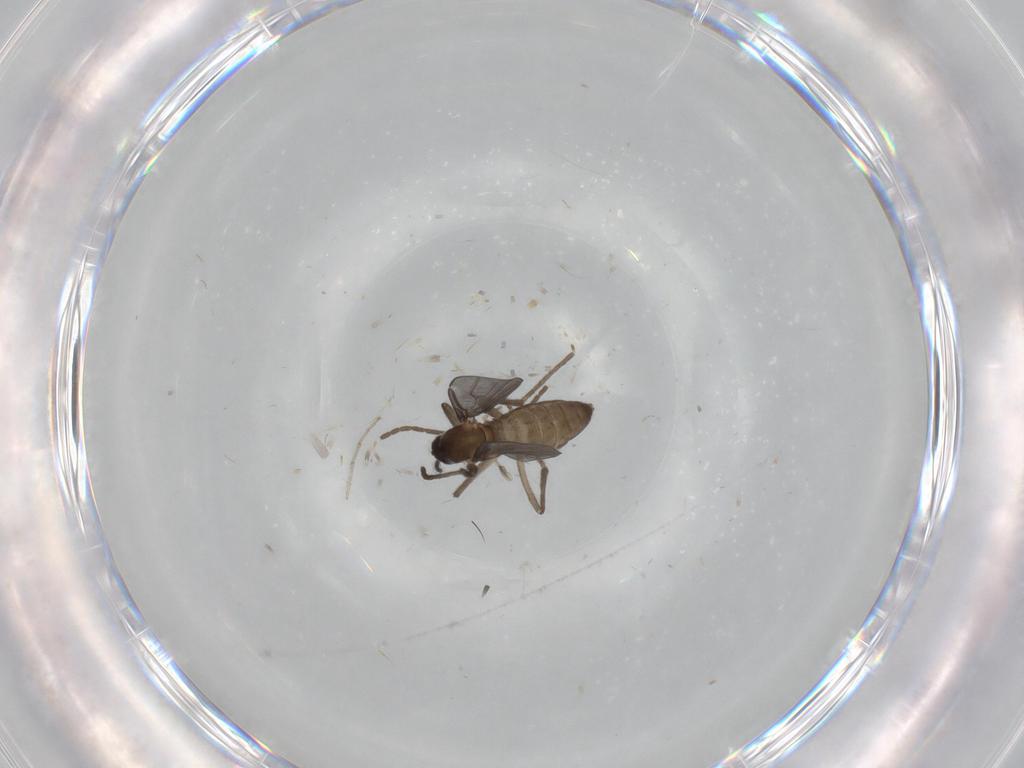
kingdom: Animalia
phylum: Arthropoda
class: Insecta
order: Diptera
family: Cecidomyiidae
